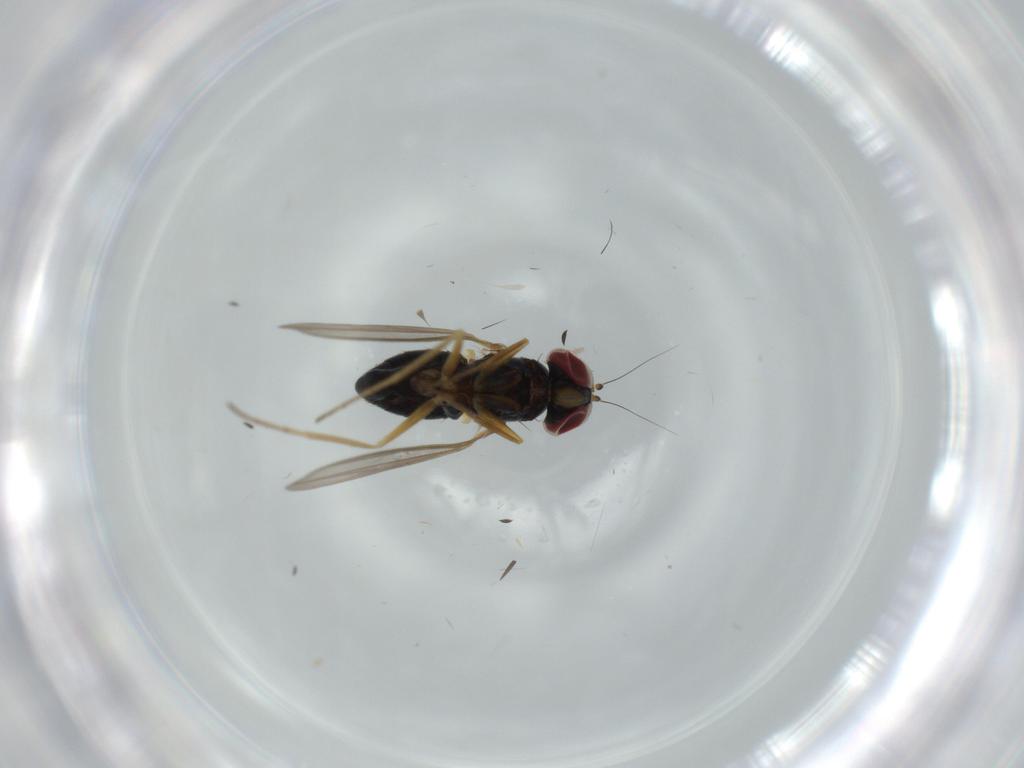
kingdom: Animalia
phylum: Arthropoda
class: Insecta
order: Diptera
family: Dolichopodidae
